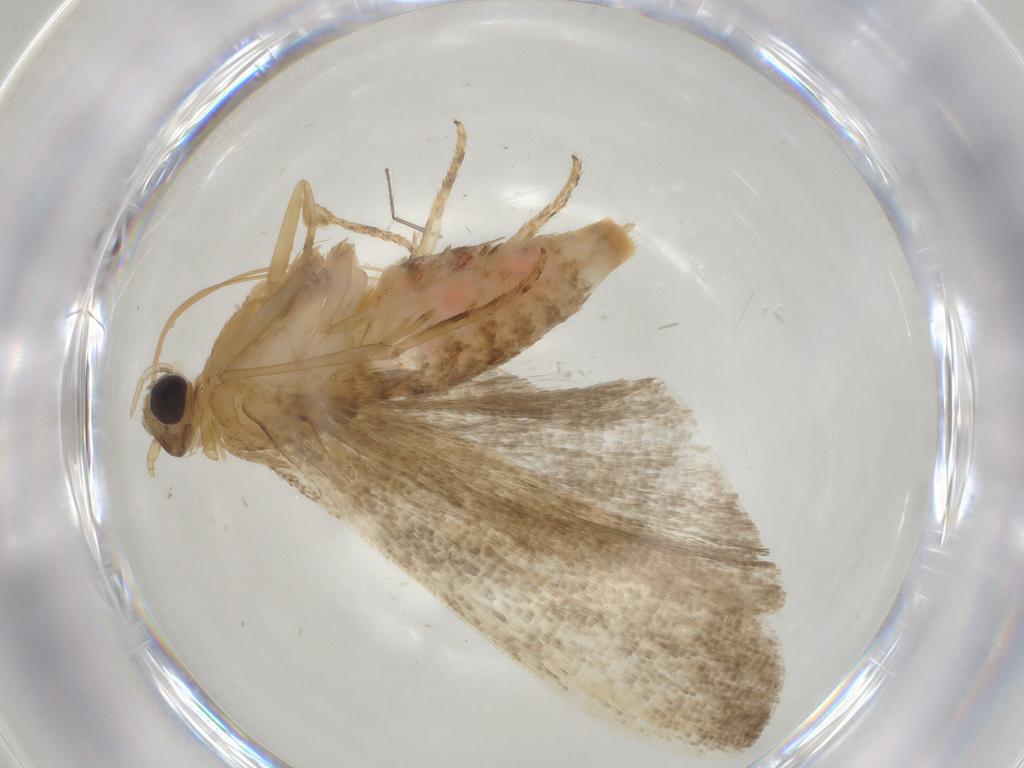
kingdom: Animalia
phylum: Arthropoda
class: Insecta
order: Lepidoptera
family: Erebidae
